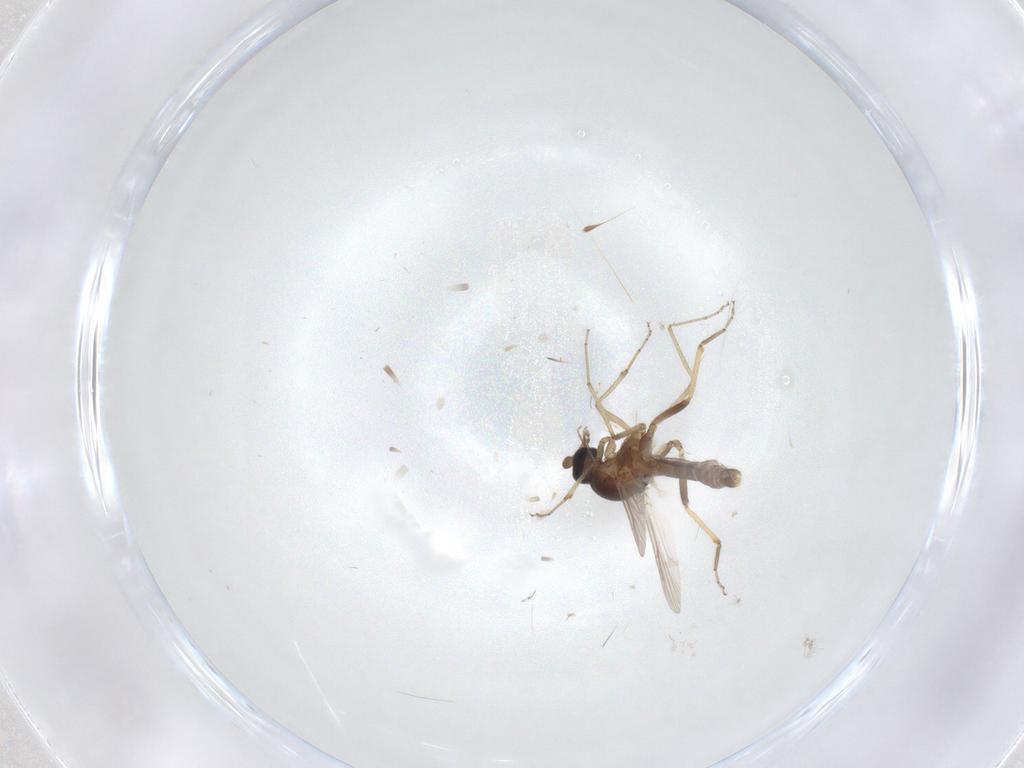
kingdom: Animalia
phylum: Arthropoda
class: Insecta
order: Diptera
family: Ceratopogonidae
